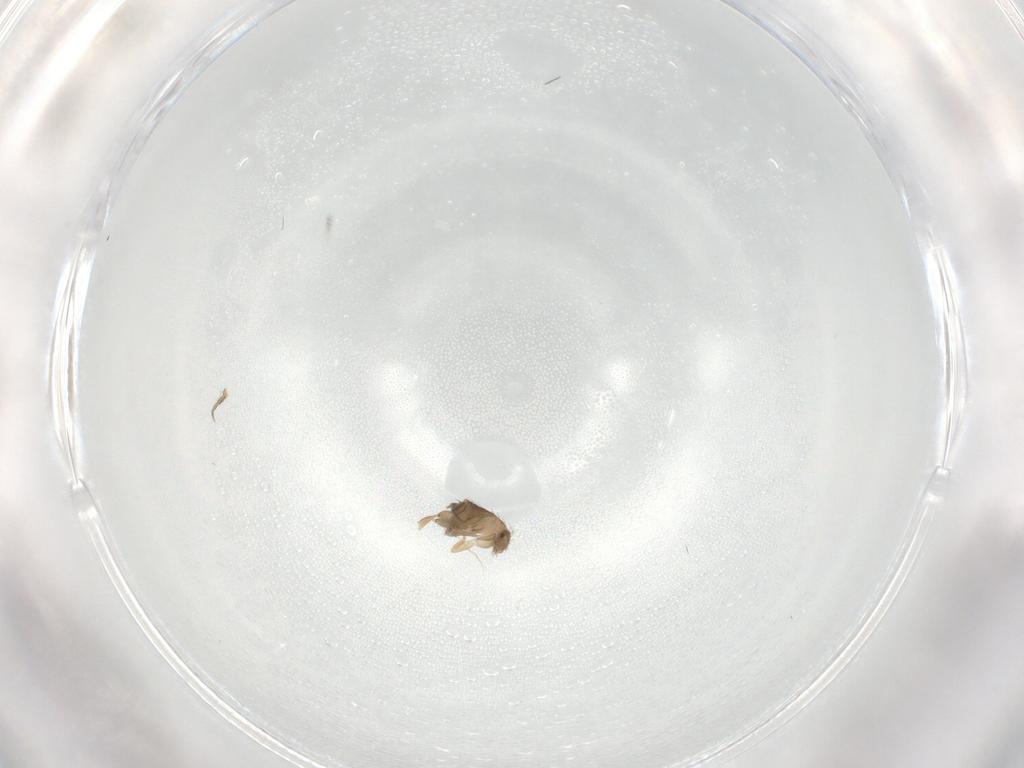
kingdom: Animalia
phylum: Arthropoda
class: Insecta
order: Diptera
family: Phoridae
